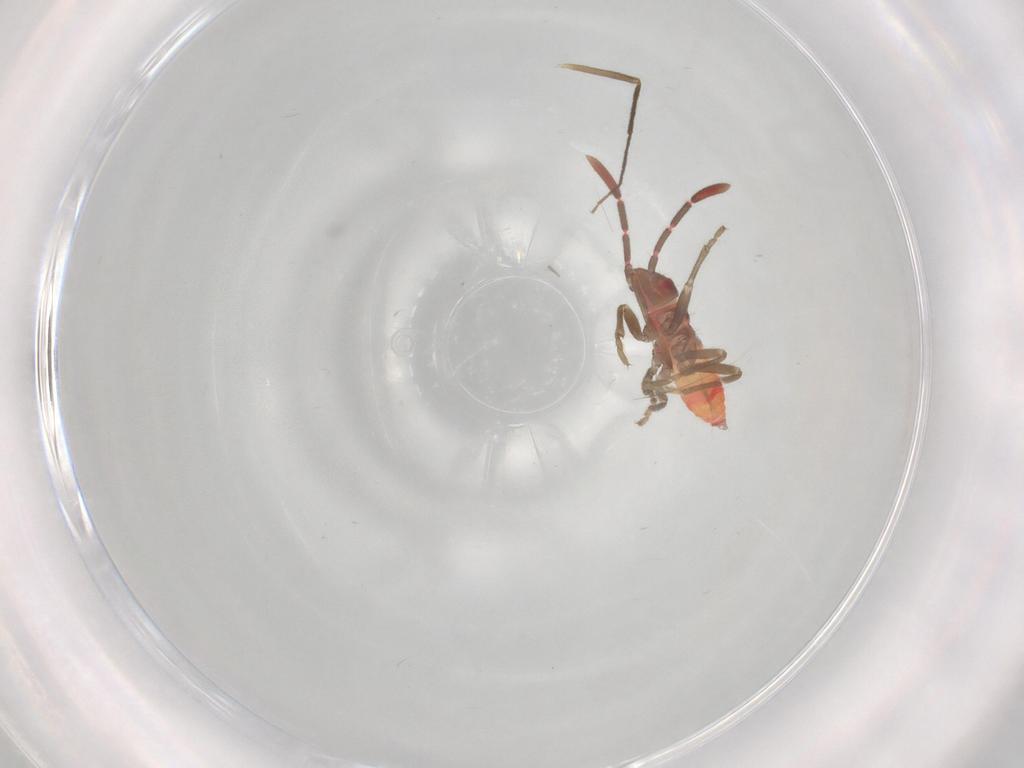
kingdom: Animalia
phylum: Arthropoda
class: Insecta
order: Hemiptera
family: Rhyparochromidae
